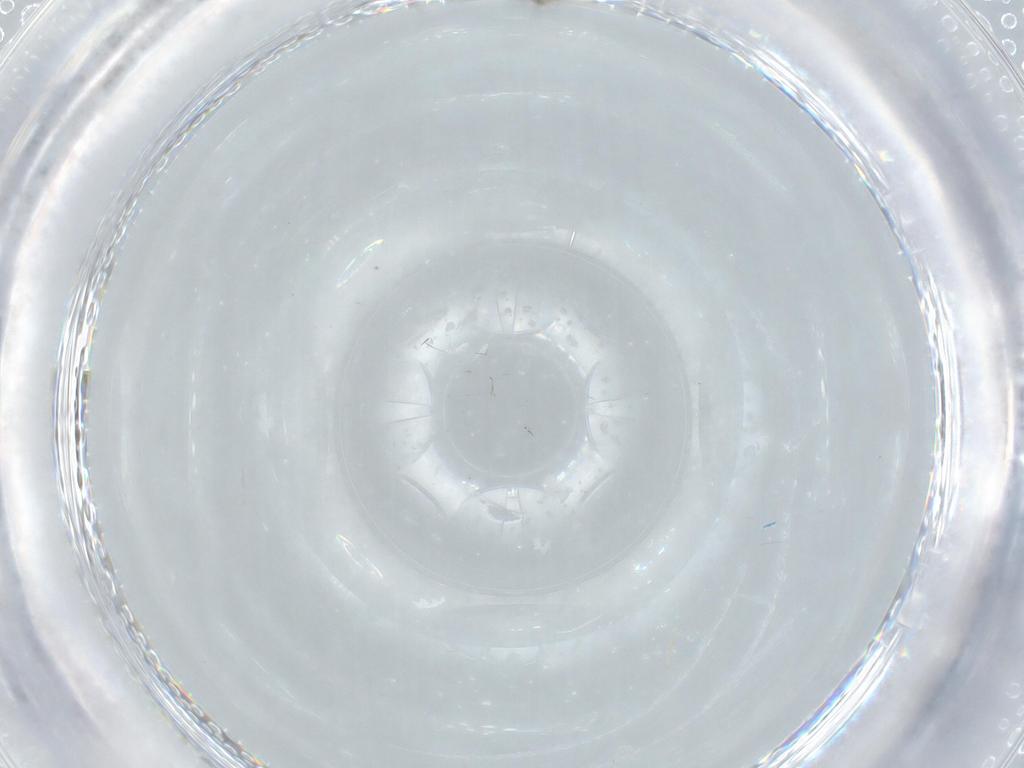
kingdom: Animalia
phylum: Arthropoda
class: Insecta
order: Diptera
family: Cecidomyiidae
